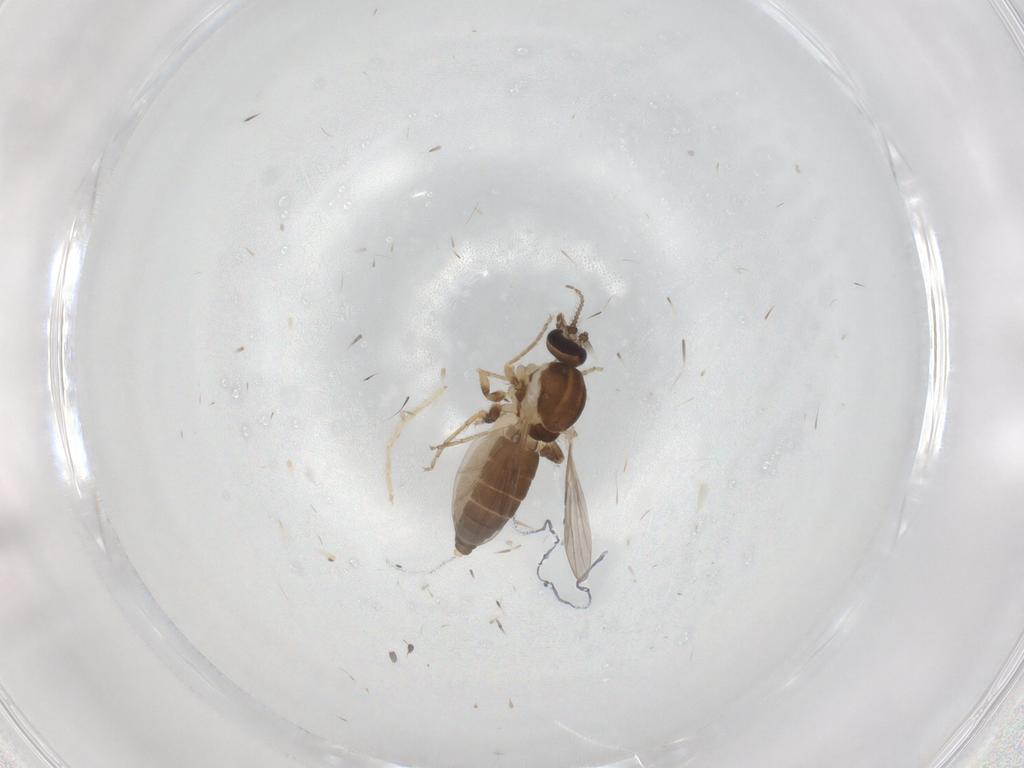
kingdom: Animalia
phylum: Arthropoda
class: Insecta
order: Diptera
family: Ceratopogonidae
